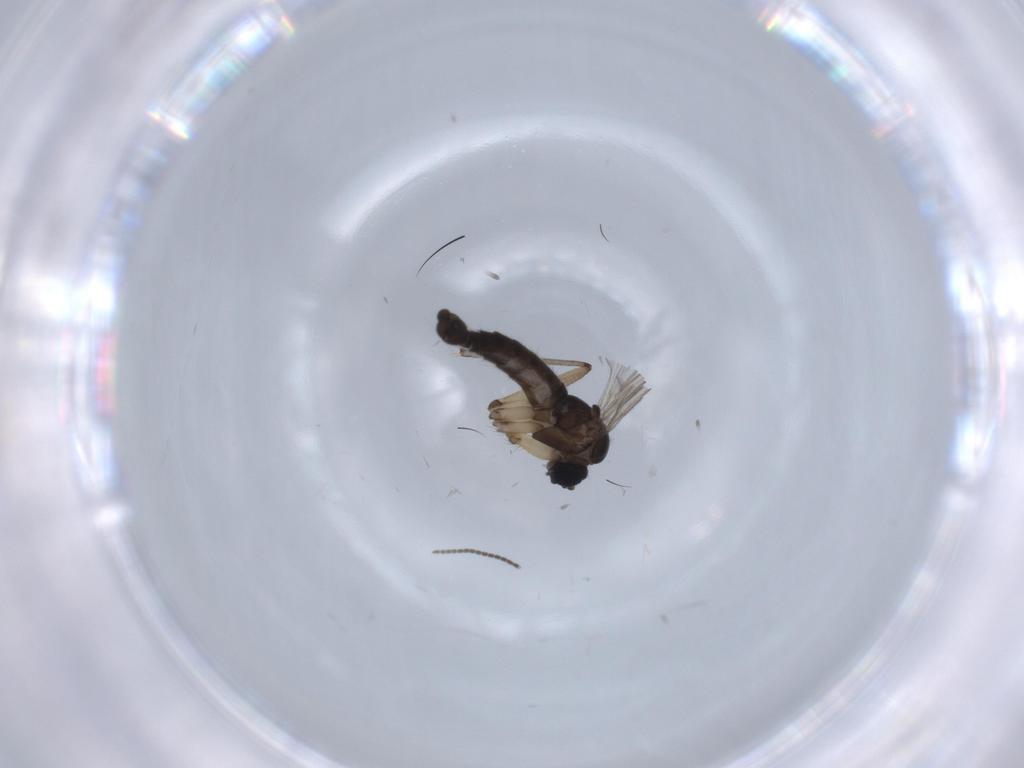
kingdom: Animalia
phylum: Arthropoda
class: Insecta
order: Diptera
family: Sciaridae
